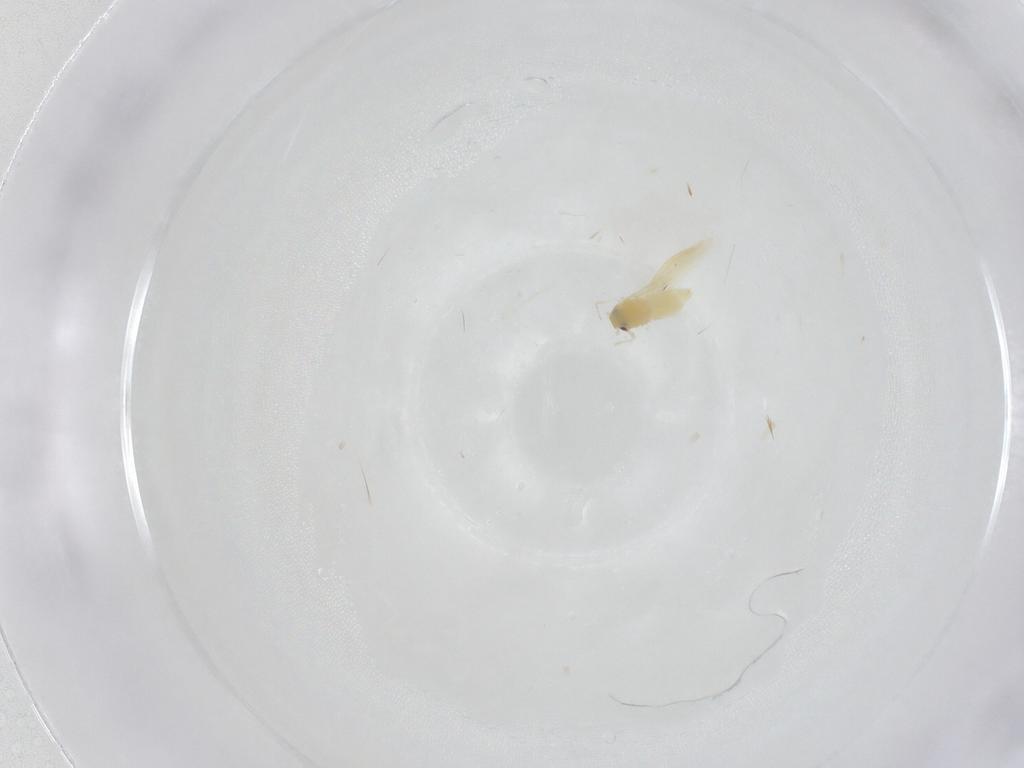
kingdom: Animalia
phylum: Arthropoda
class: Insecta
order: Hemiptera
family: Aleyrodidae
